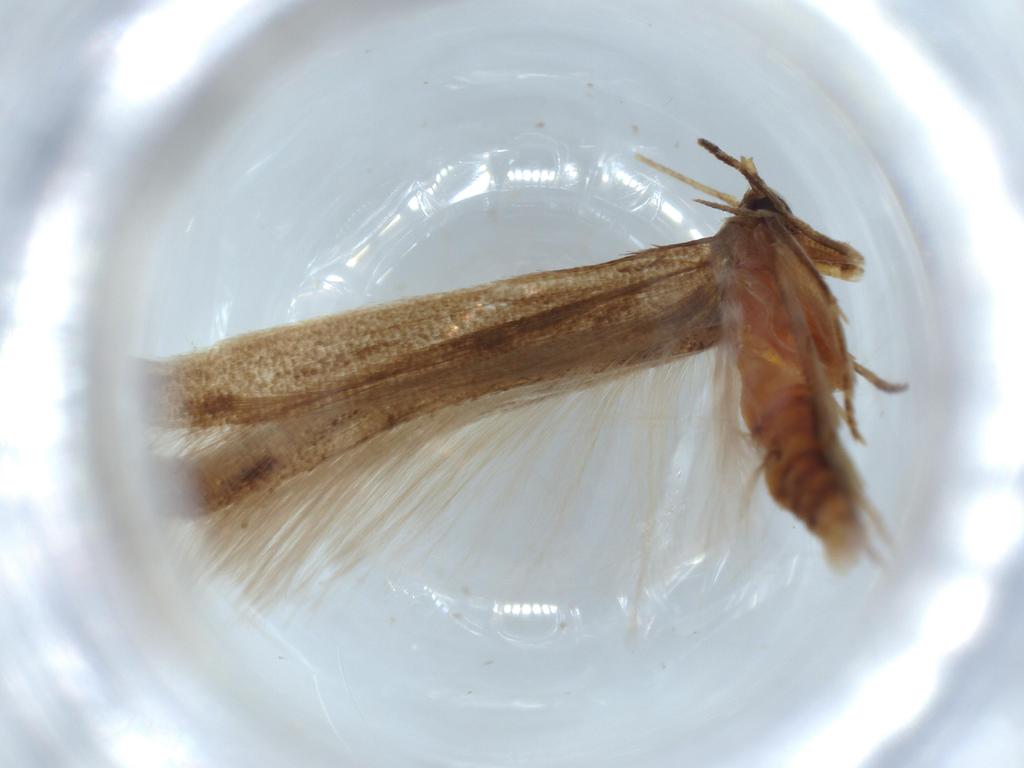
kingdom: Animalia
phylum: Arthropoda
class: Insecta
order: Lepidoptera
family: Stathmopodidae
